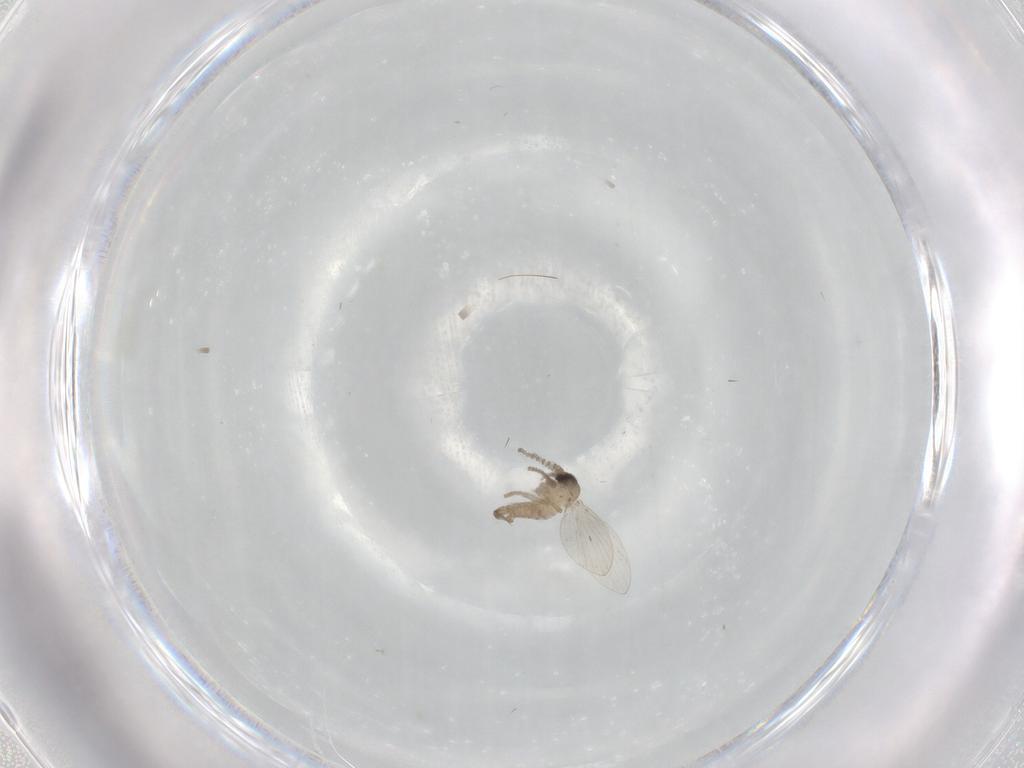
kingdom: Animalia
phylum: Arthropoda
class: Insecta
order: Diptera
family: Psychodidae
